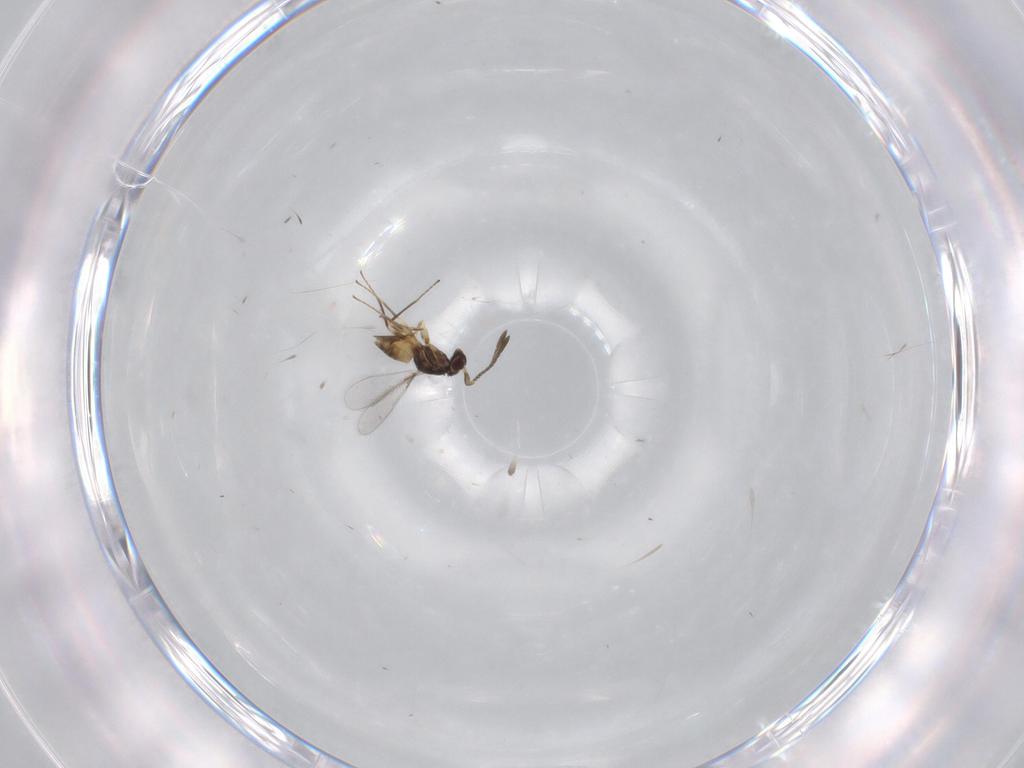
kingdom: Animalia
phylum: Arthropoda
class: Insecta
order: Hymenoptera
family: Mymaridae
